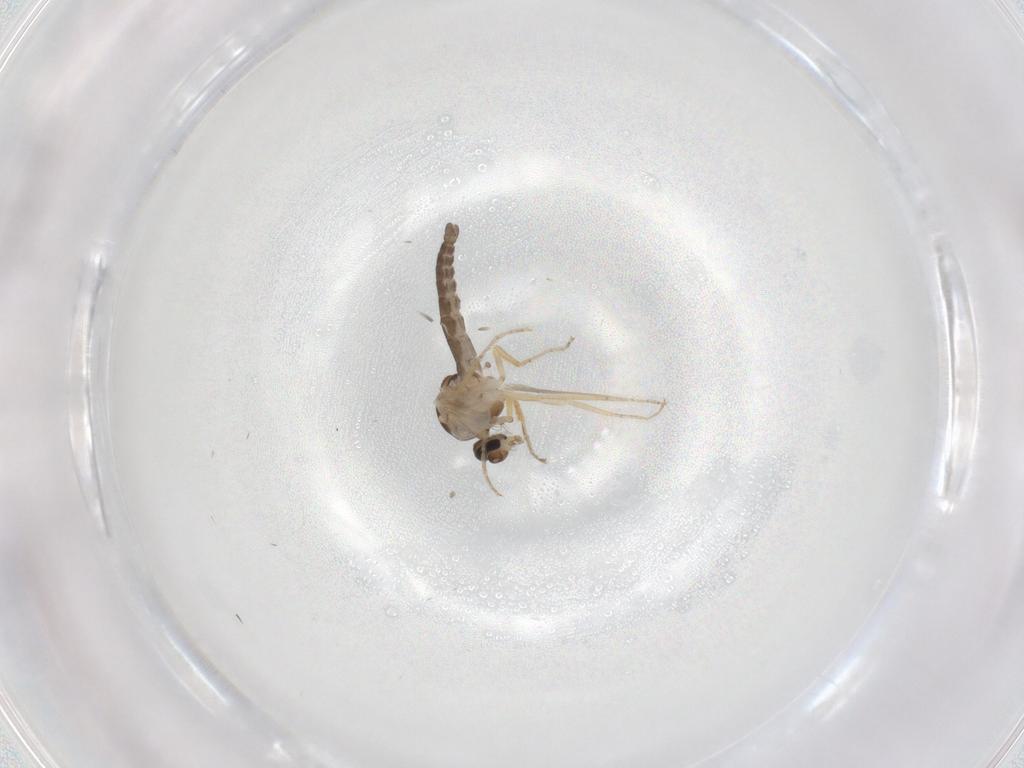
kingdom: Animalia
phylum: Arthropoda
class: Insecta
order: Diptera
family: Ceratopogonidae
